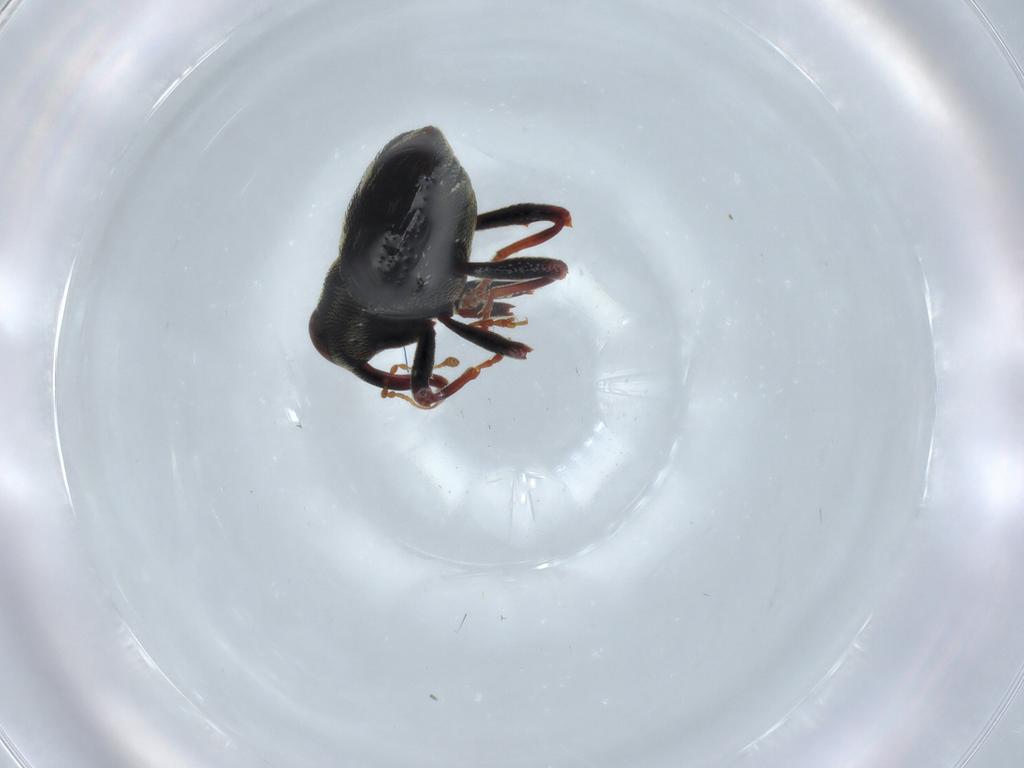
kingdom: Animalia
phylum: Arthropoda
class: Insecta
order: Coleoptera
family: Curculionidae
